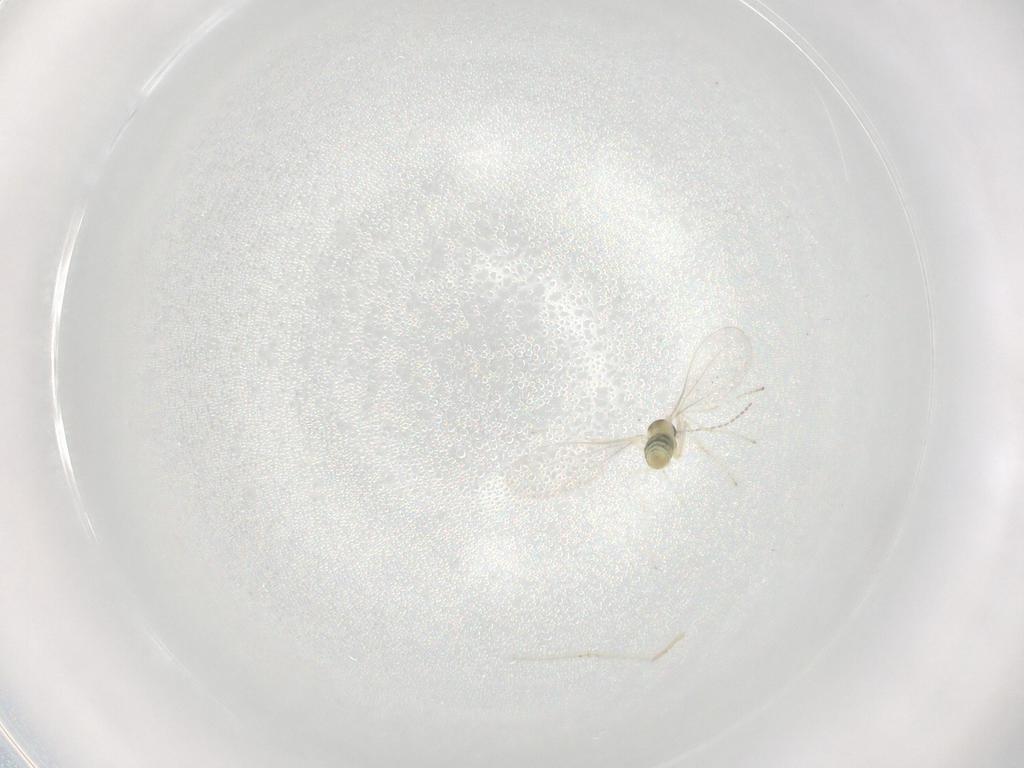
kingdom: Animalia
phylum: Arthropoda
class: Insecta
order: Diptera
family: Cecidomyiidae
